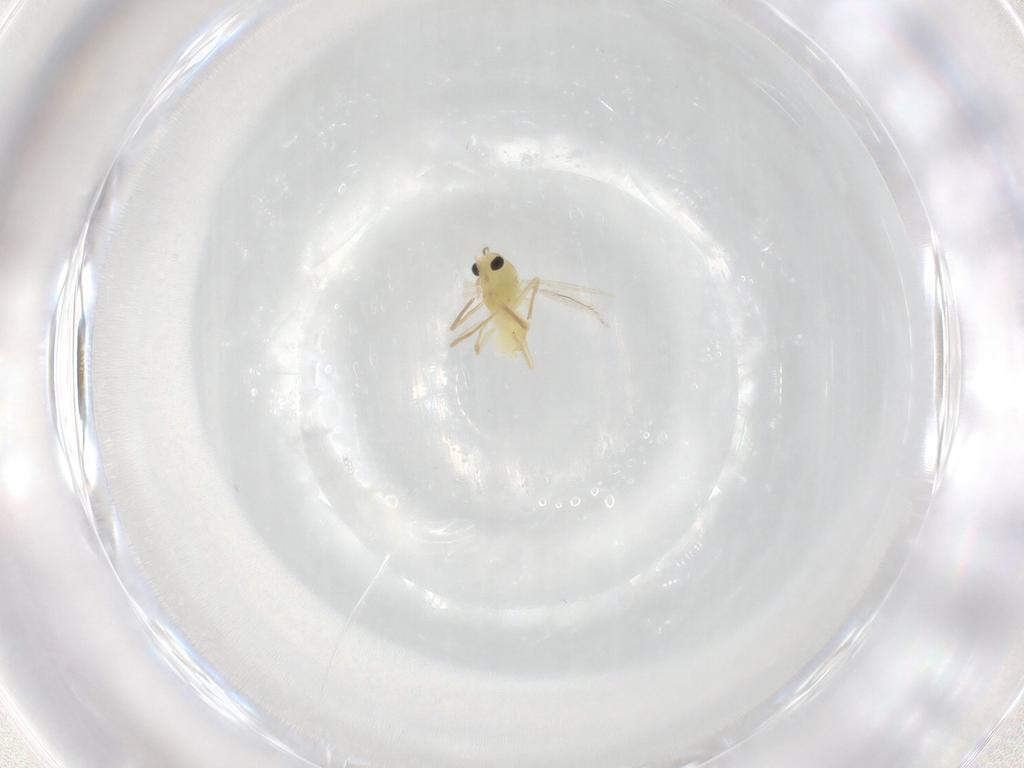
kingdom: Animalia
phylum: Arthropoda
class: Insecta
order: Diptera
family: Chironomidae
